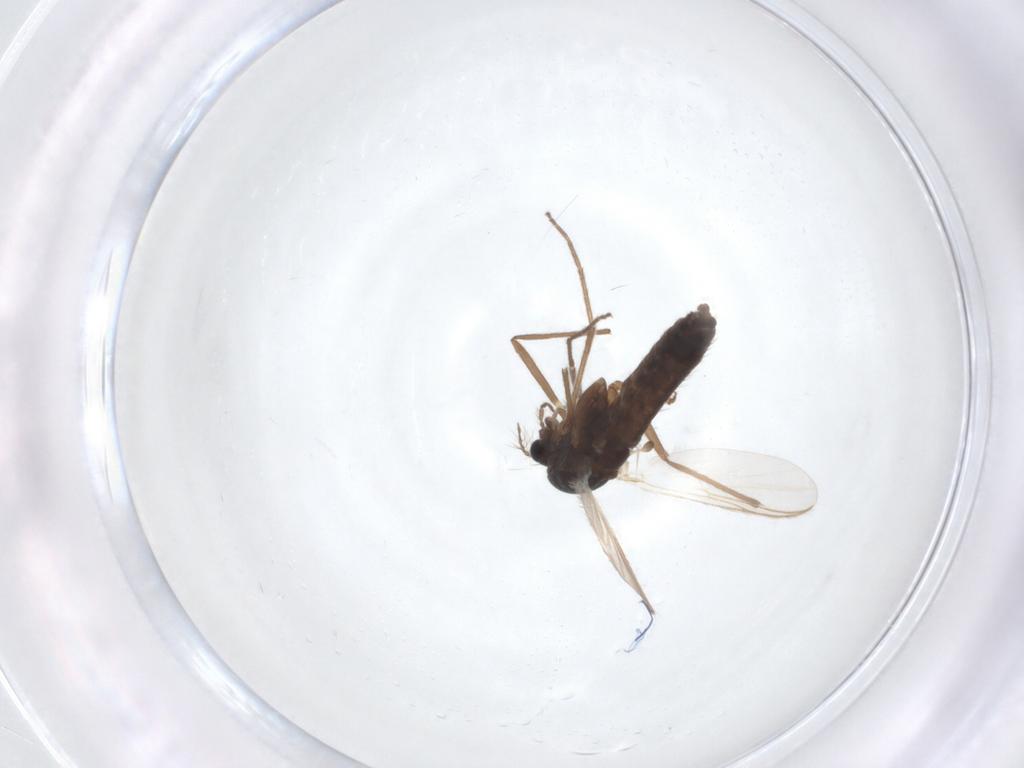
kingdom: Animalia
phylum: Arthropoda
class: Insecta
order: Diptera
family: Chironomidae
